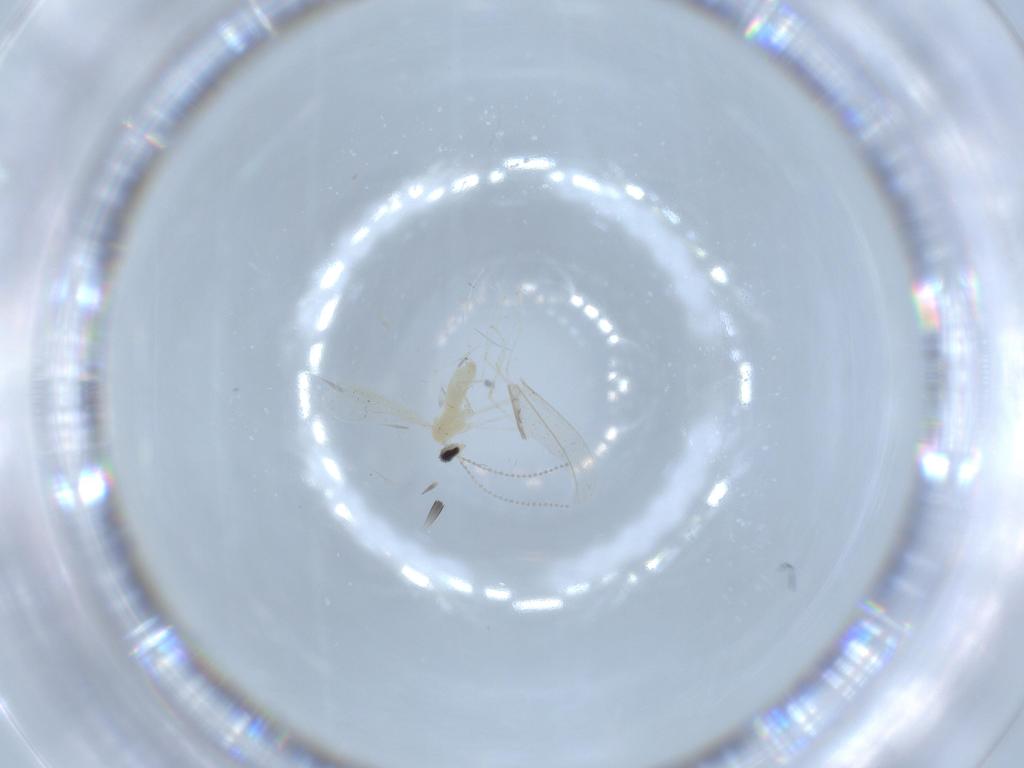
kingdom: Animalia
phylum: Arthropoda
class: Insecta
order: Diptera
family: Cecidomyiidae
